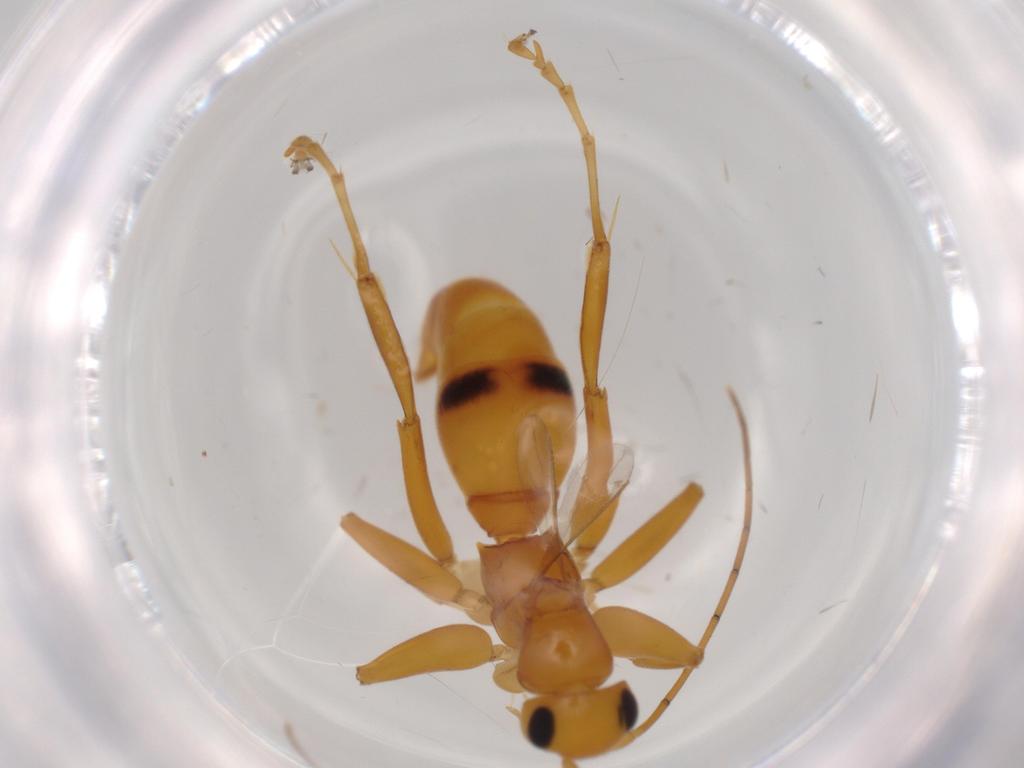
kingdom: Animalia
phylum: Arthropoda
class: Insecta
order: Hymenoptera
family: Rhopalosomatidae
